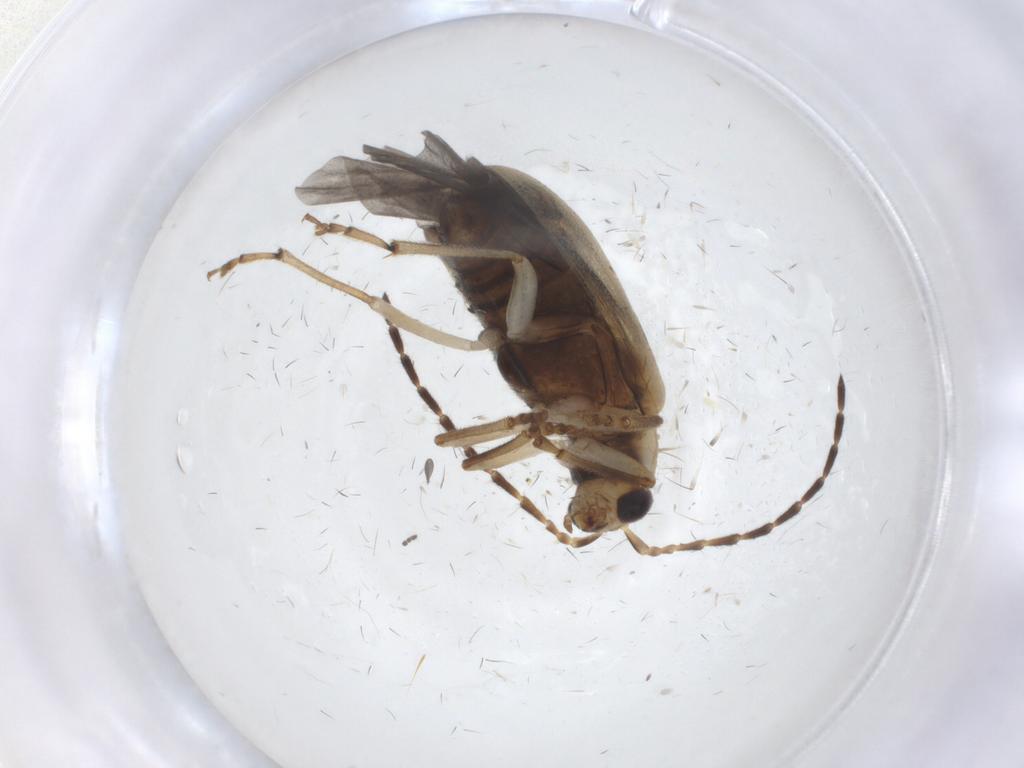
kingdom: Animalia
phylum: Arthropoda
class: Insecta
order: Coleoptera
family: Chrysomelidae
